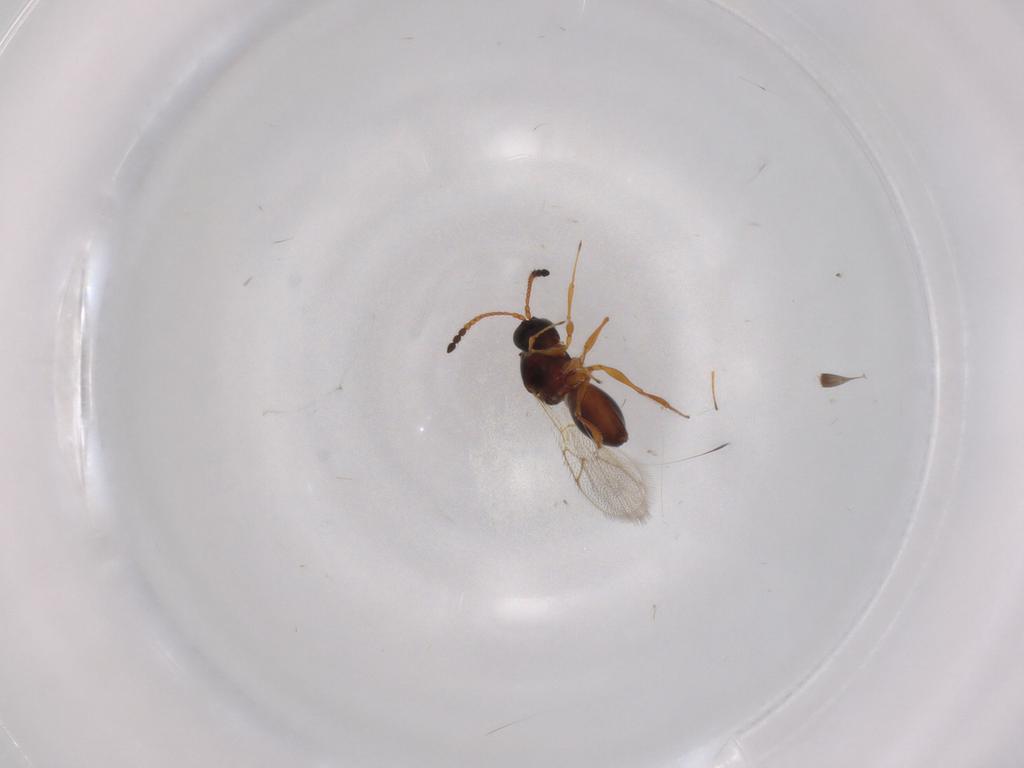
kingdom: Animalia
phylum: Arthropoda
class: Insecta
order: Hymenoptera
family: Figitidae
